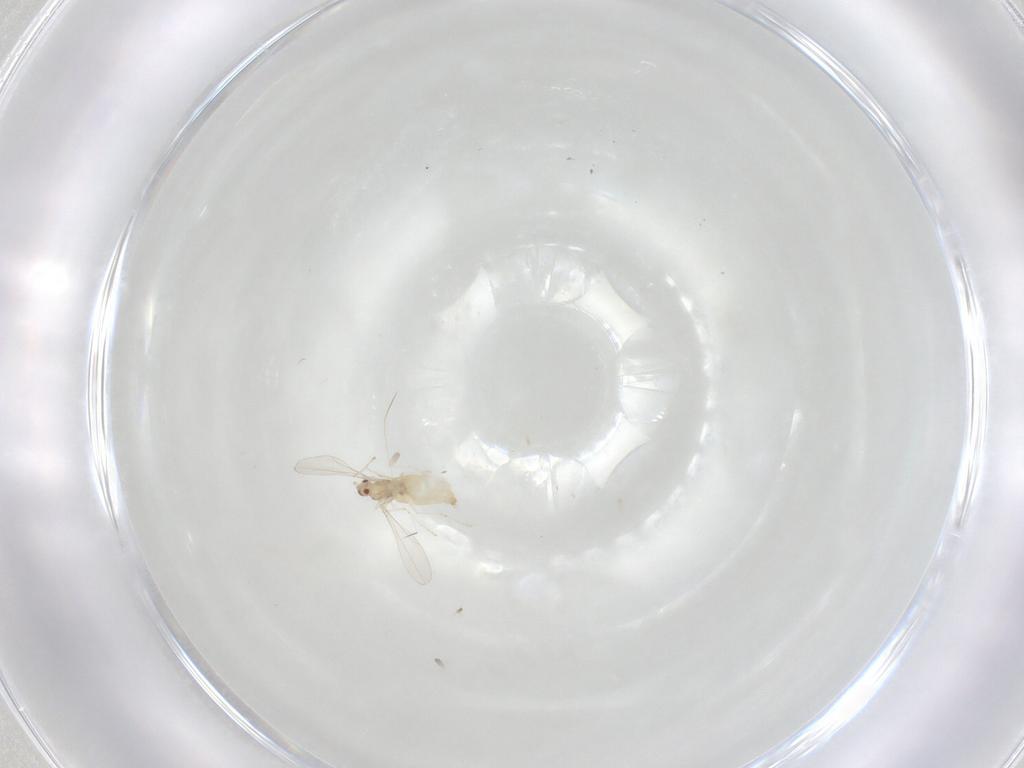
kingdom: Animalia
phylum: Arthropoda
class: Insecta
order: Diptera
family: Cecidomyiidae
